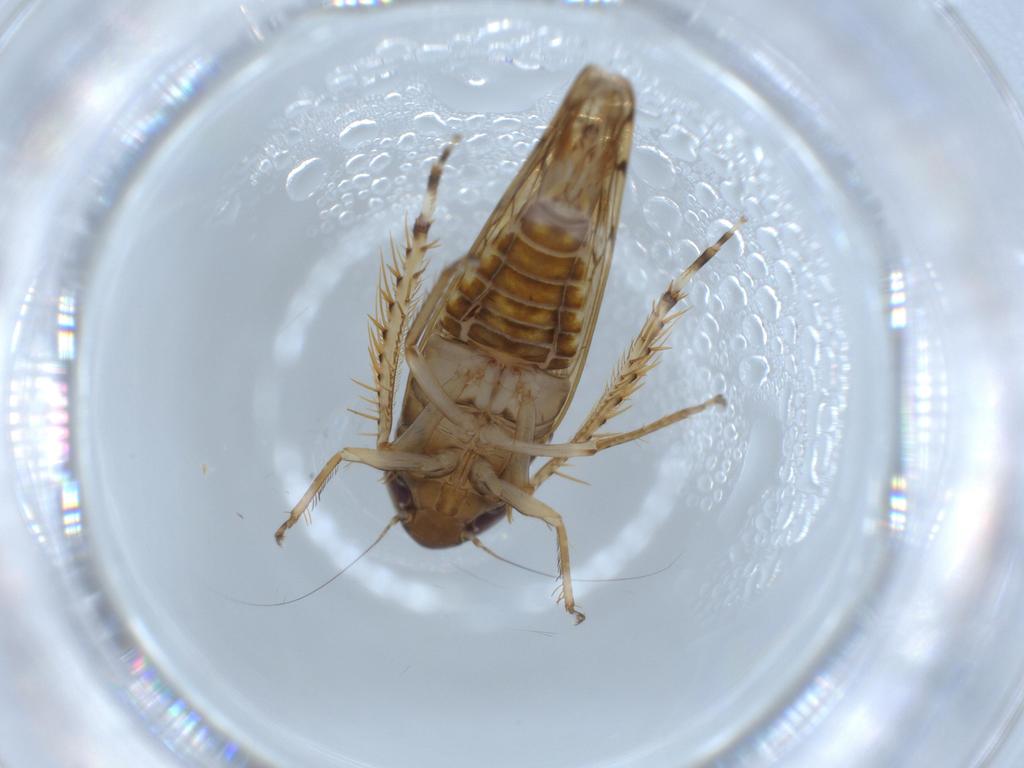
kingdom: Animalia
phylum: Arthropoda
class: Insecta
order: Hemiptera
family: Cicadellidae
